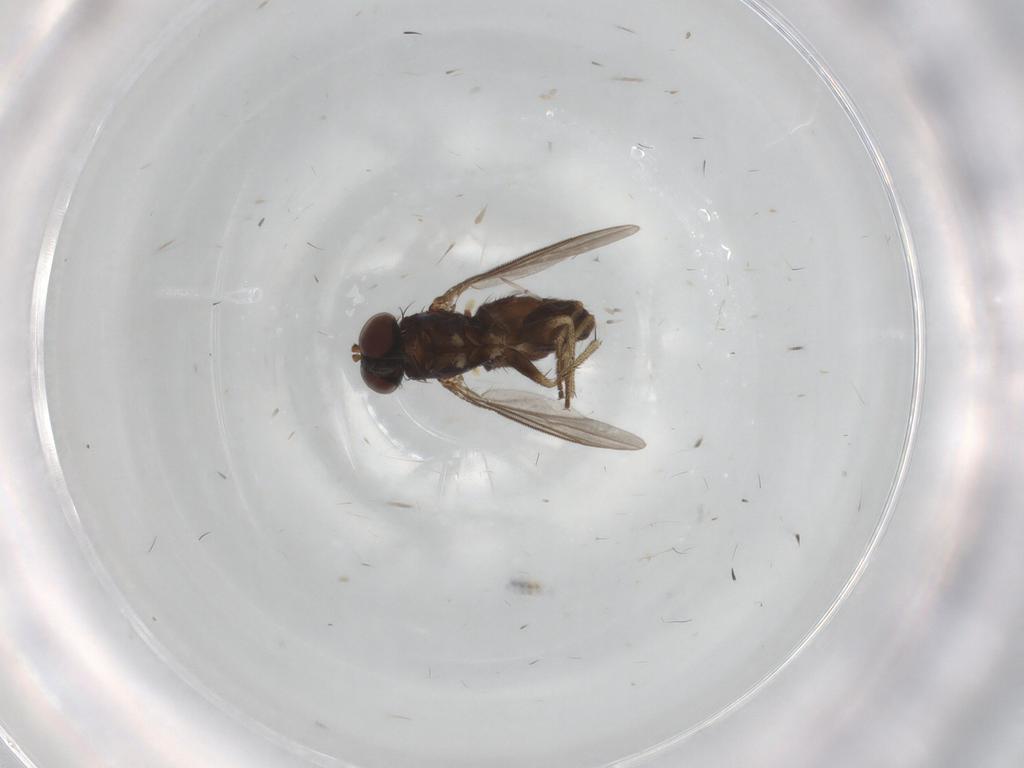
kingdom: Animalia
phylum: Arthropoda
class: Insecta
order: Diptera
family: Dolichopodidae
